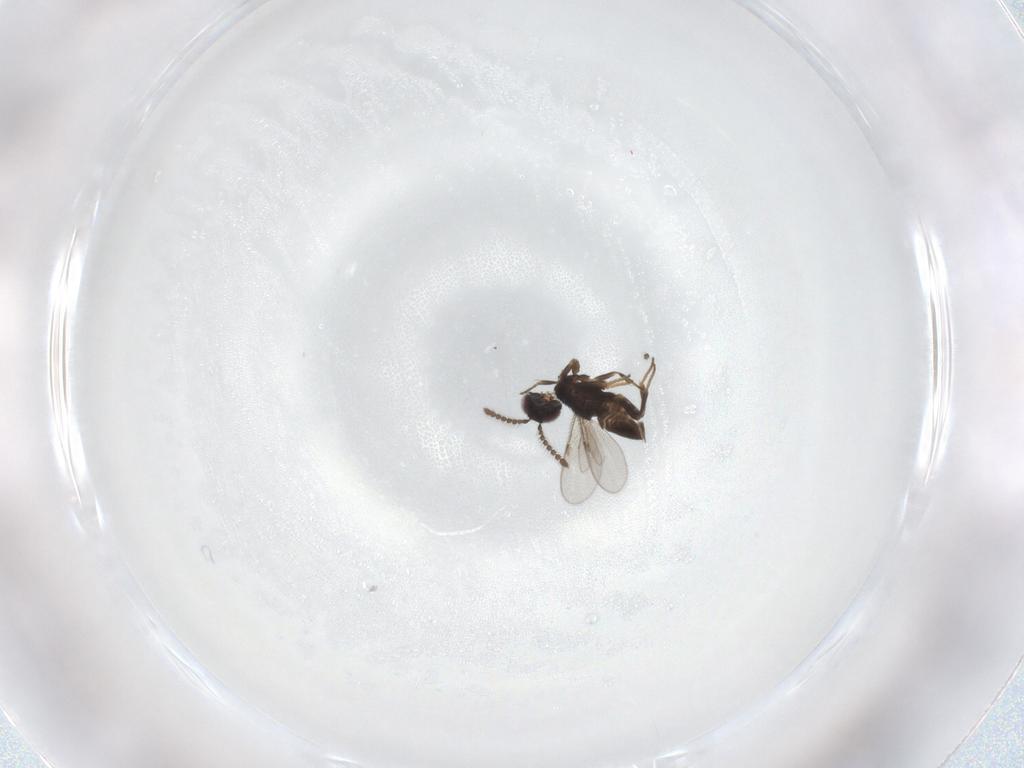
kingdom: Animalia
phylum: Arthropoda
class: Insecta
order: Hymenoptera
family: Encyrtidae
